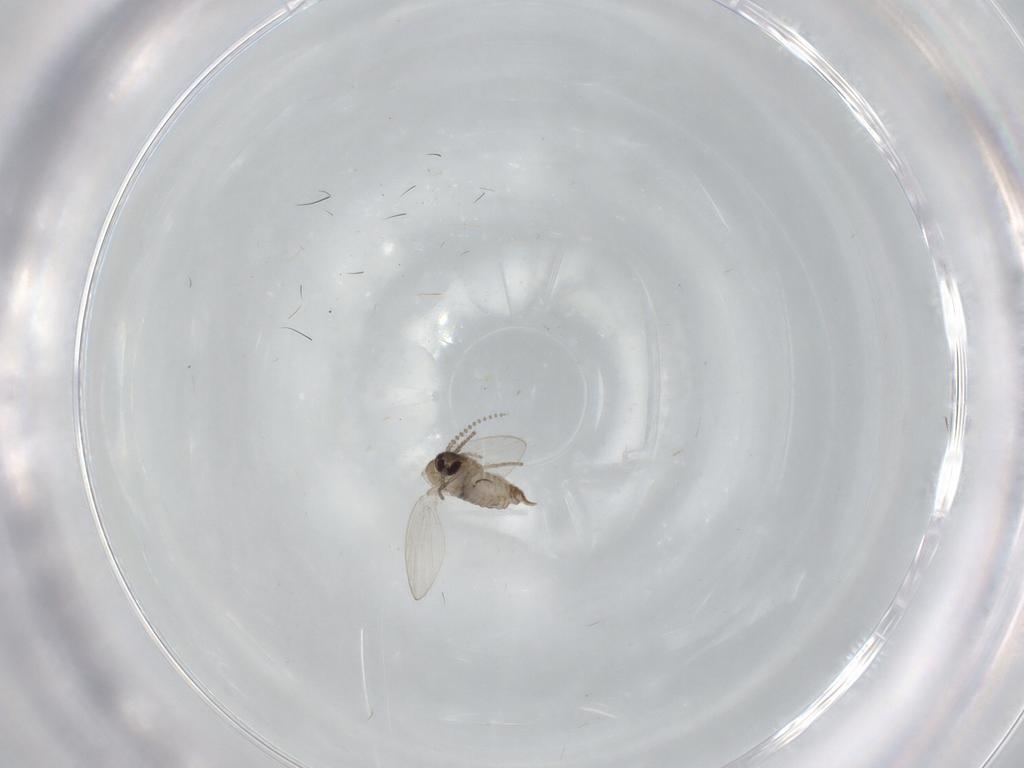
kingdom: Animalia
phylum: Arthropoda
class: Insecta
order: Diptera
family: Psychodidae
